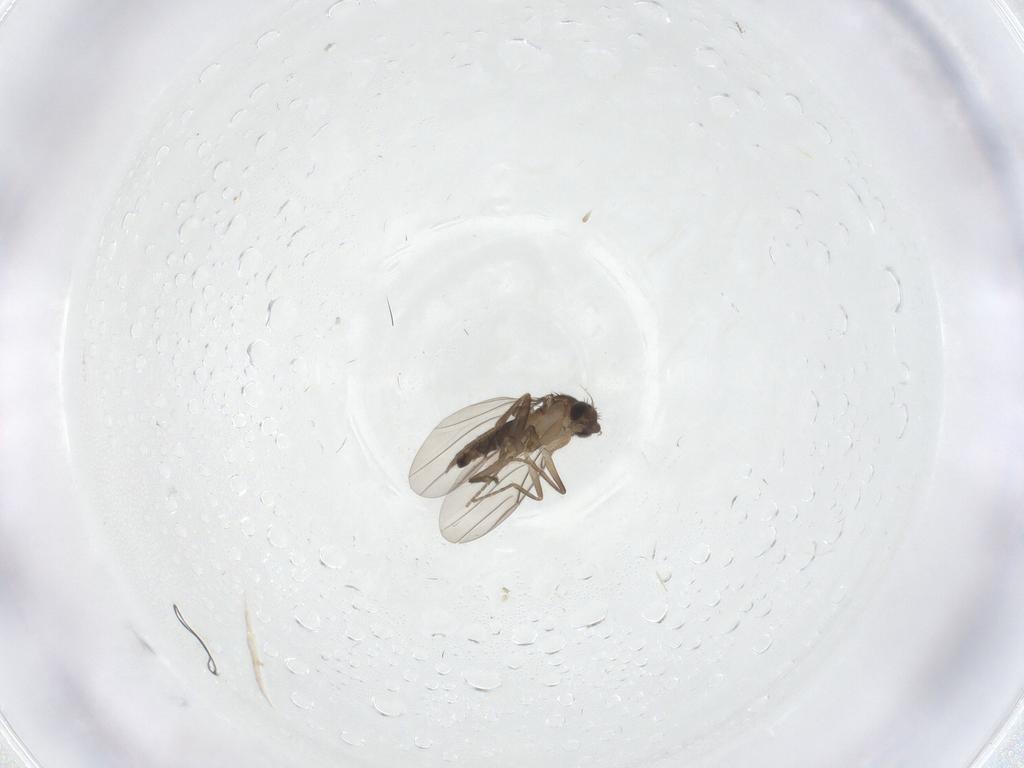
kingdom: Animalia
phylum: Arthropoda
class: Insecta
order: Diptera
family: Chironomidae
